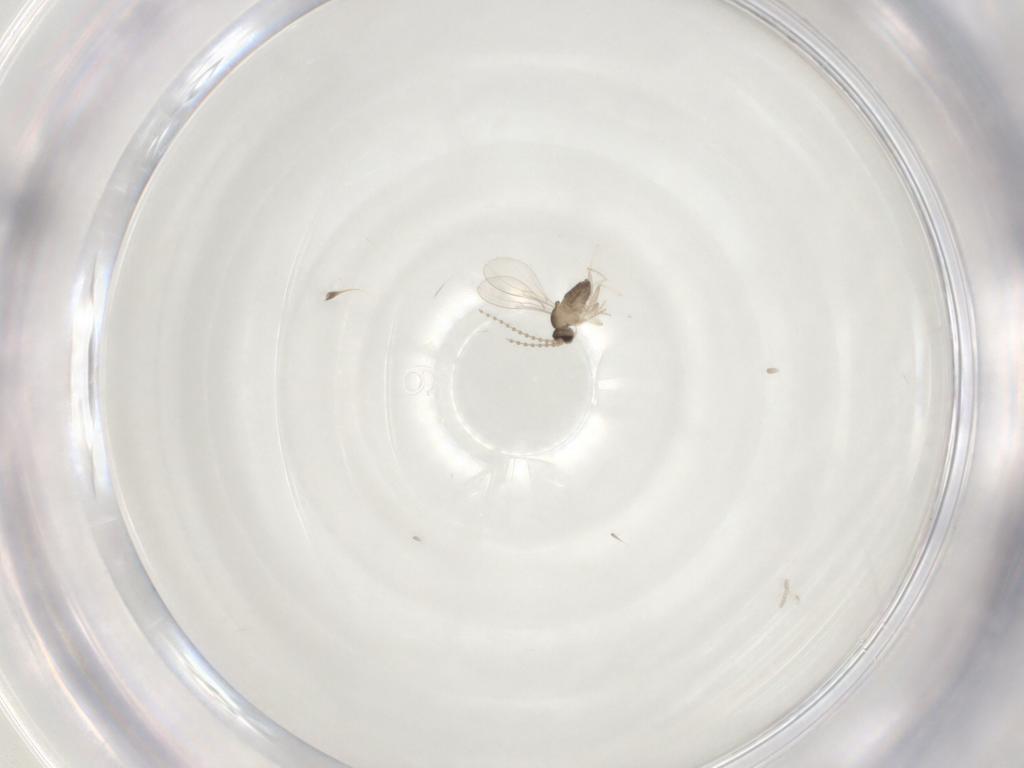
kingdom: Animalia
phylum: Arthropoda
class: Insecta
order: Diptera
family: Cecidomyiidae
